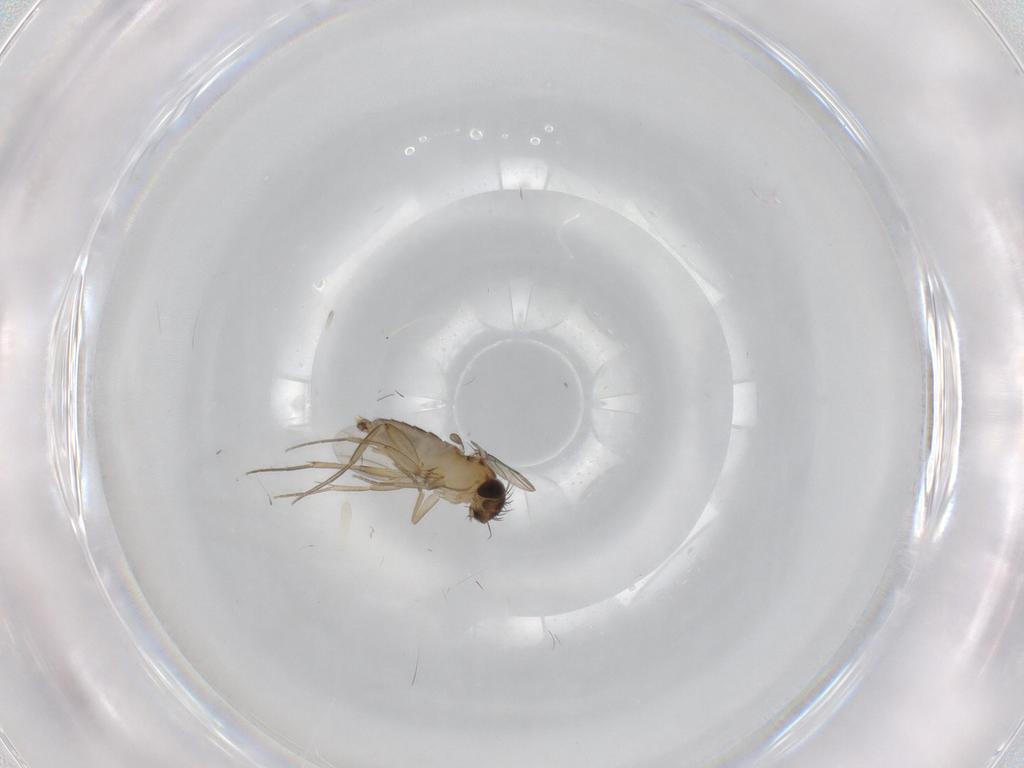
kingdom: Animalia
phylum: Arthropoda
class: Insecta
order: Diptera
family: Phoridae
